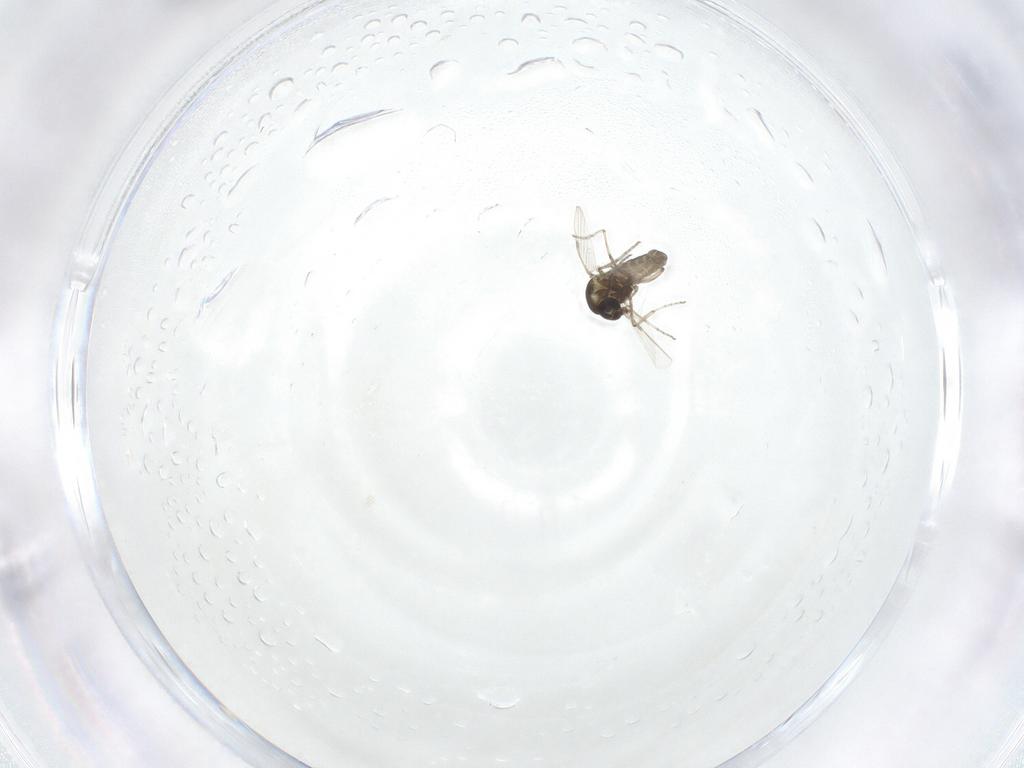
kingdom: Animalia
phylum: Arthropoda
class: Insecta
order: Diptera
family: Ceratopogonidae
